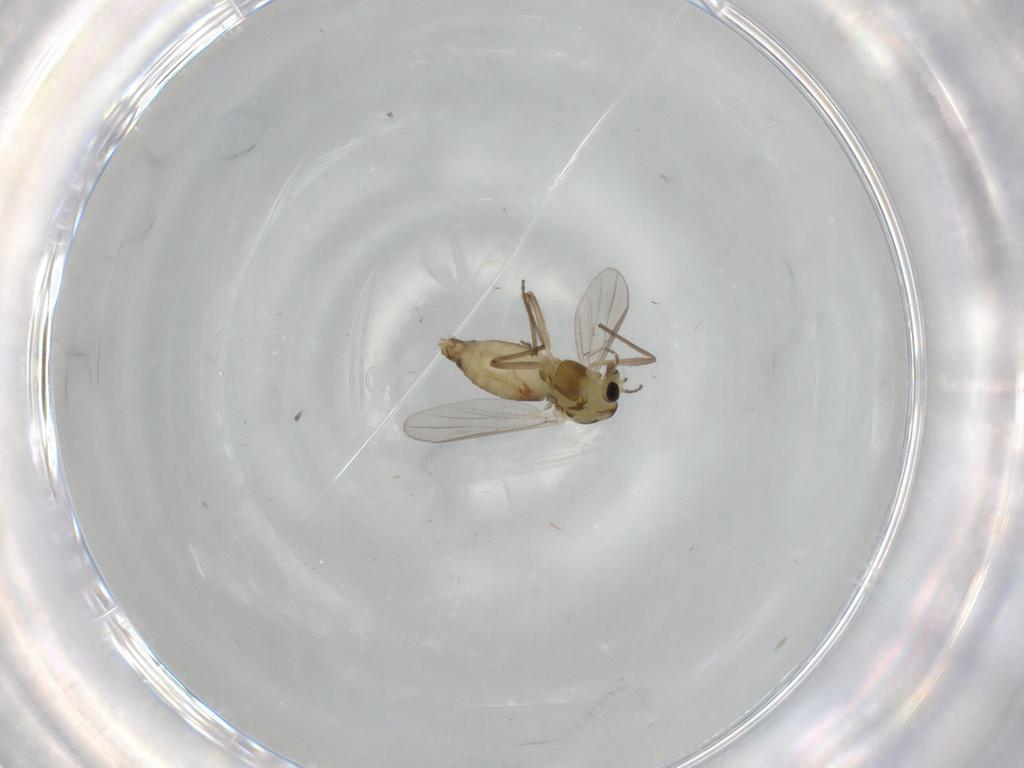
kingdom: Animalia
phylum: Arthropoda
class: Insecta
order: Diptera
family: Chironomidae
